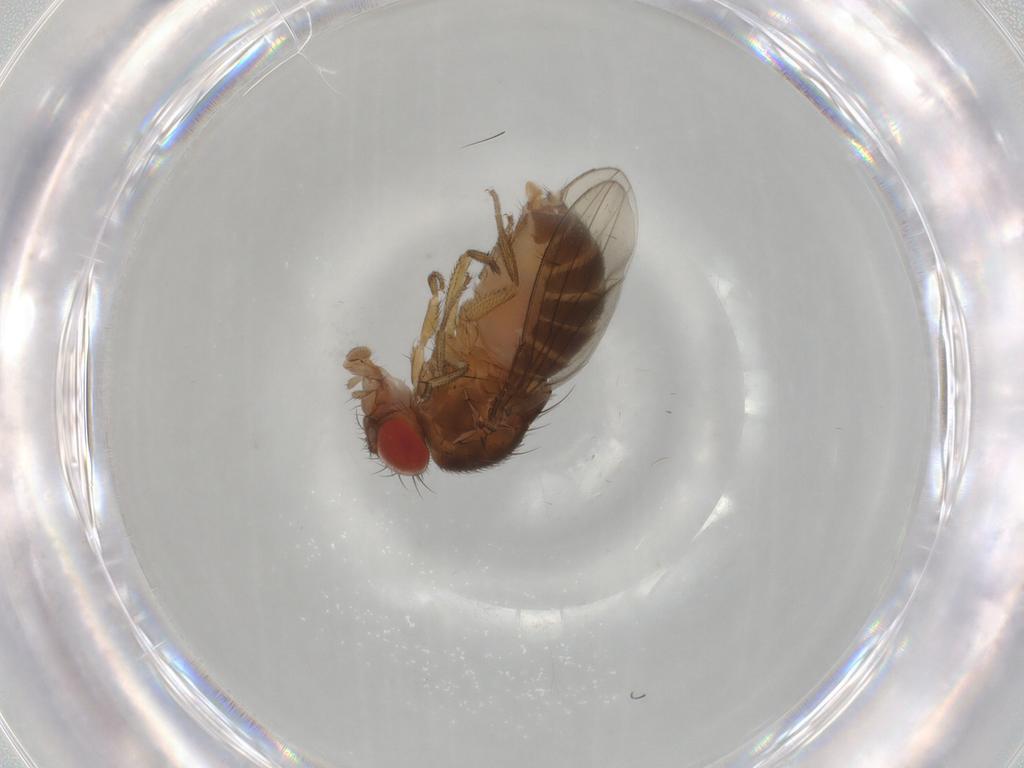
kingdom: Animalia
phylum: Arthropoda
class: Insecta
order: Diptera
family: Drosophilidae
